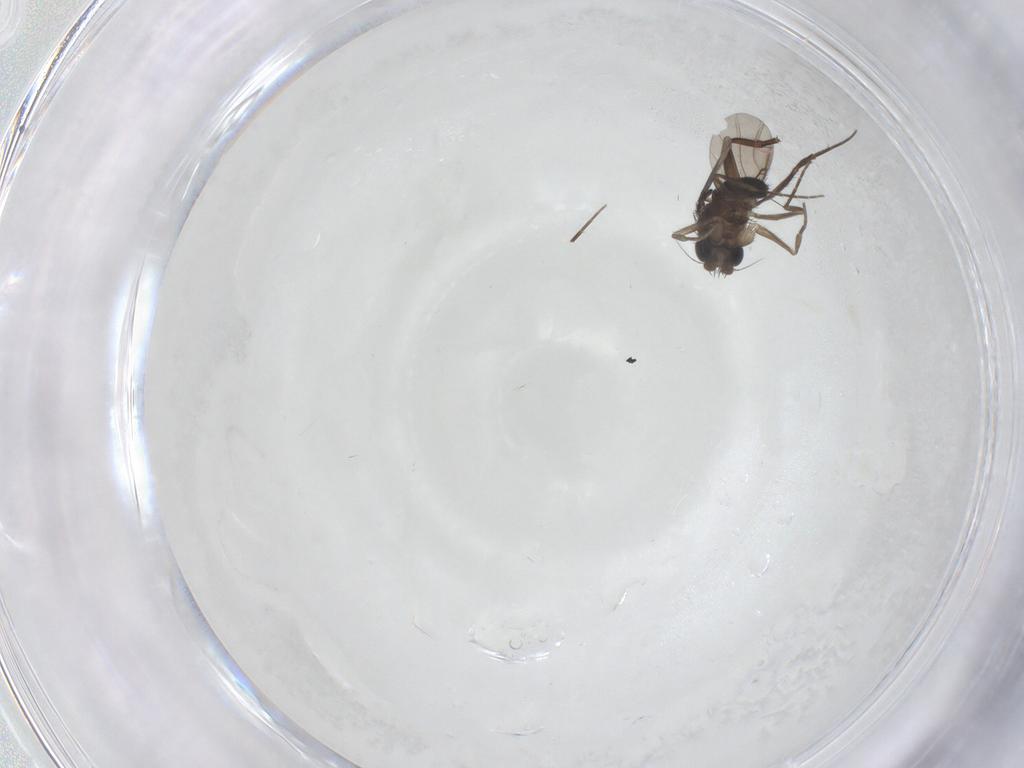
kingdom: Animalia
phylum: Arthropoda
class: Insecta
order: Diptera
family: Phoridae
